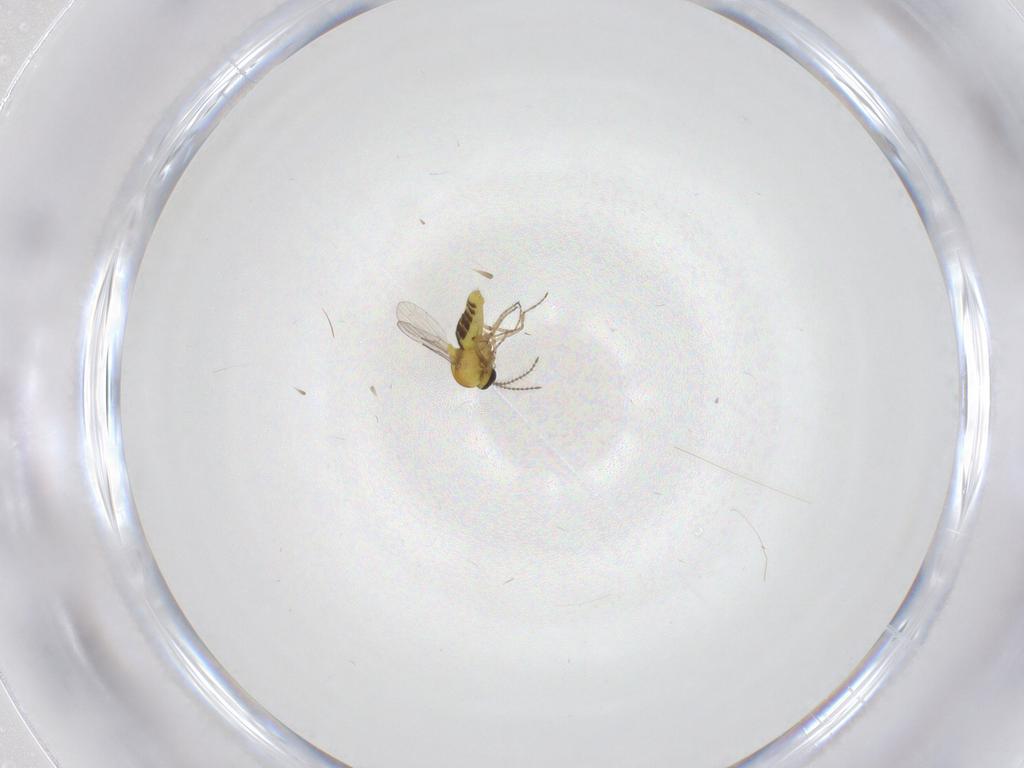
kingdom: Animalia
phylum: Arthropoda
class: Insecta
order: Diptera
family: Ceratopogonidae
